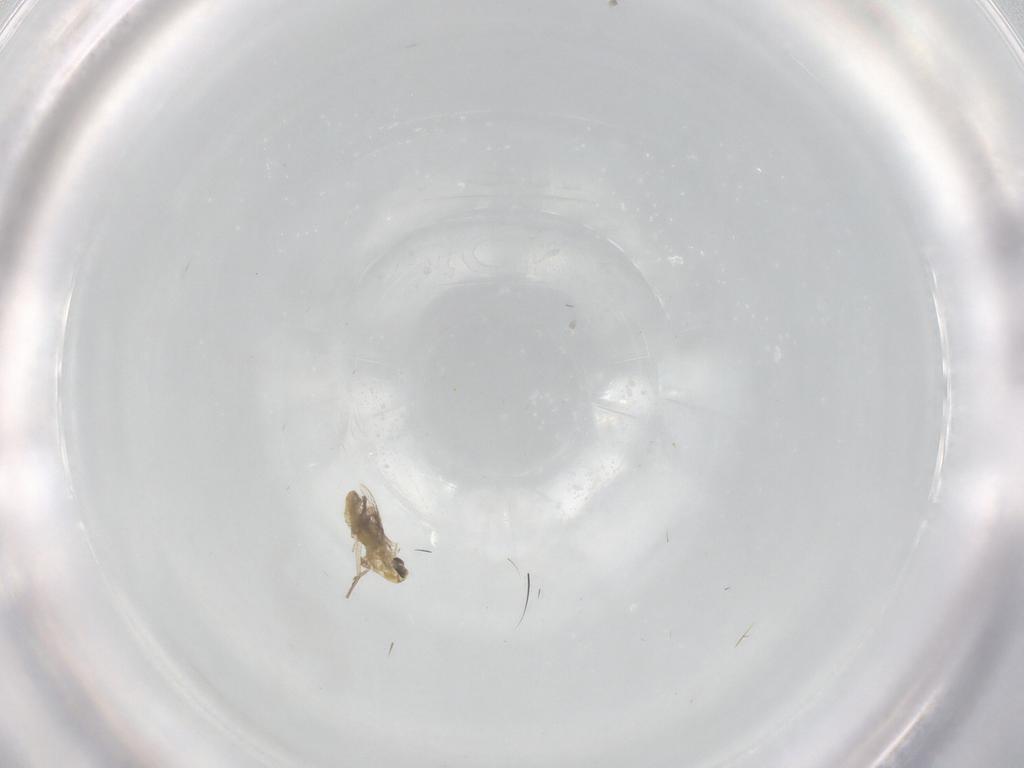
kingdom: Animalia
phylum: Arthropoda
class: Insecta
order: Diptera
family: Chironomidae
